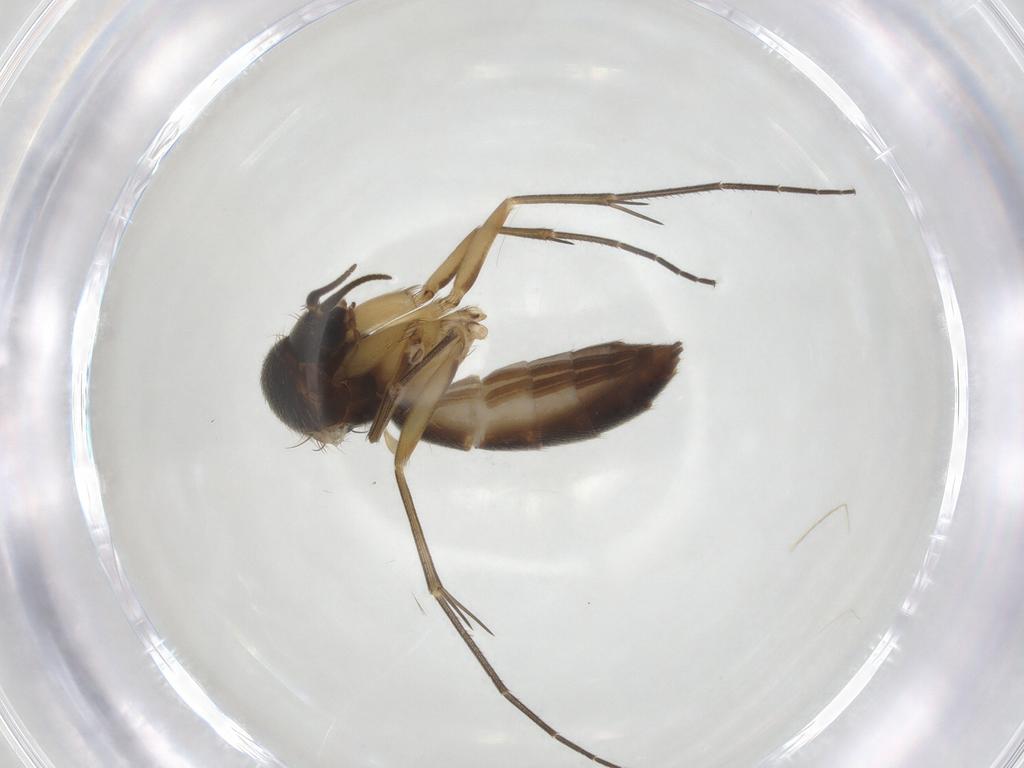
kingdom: Animalia
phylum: Arthropoda
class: Insecta
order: Diptera
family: Mycetophilidae
